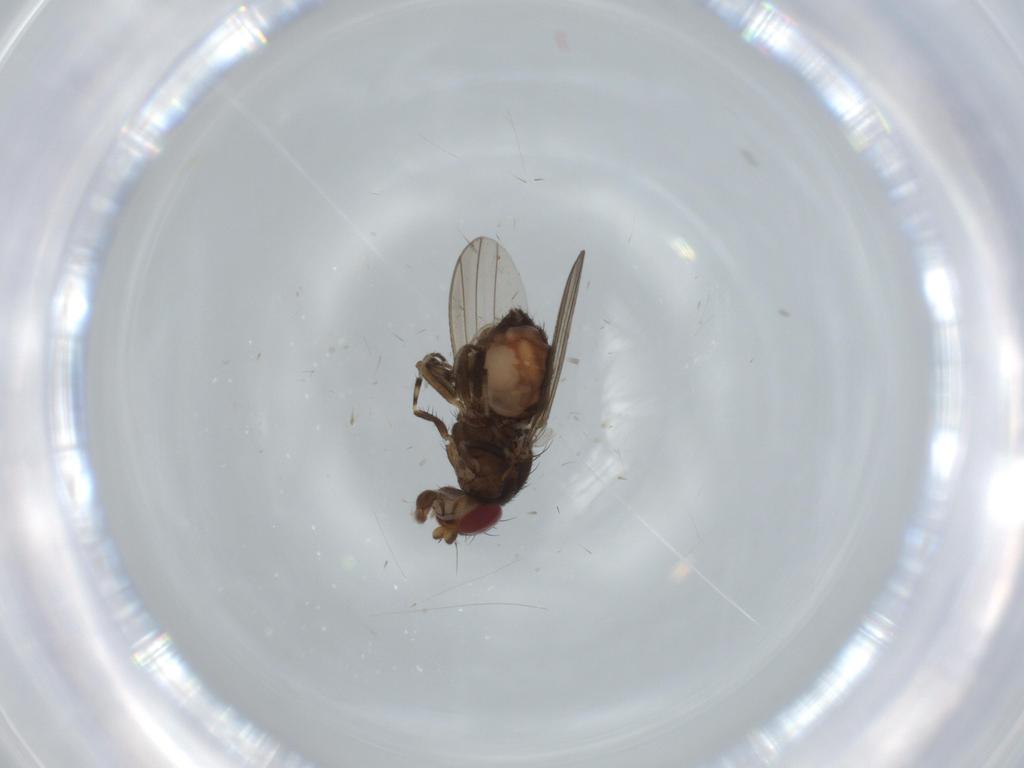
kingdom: Animalia
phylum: Arthropoda
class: Insecta
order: Diptera
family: Heleomyzidae
